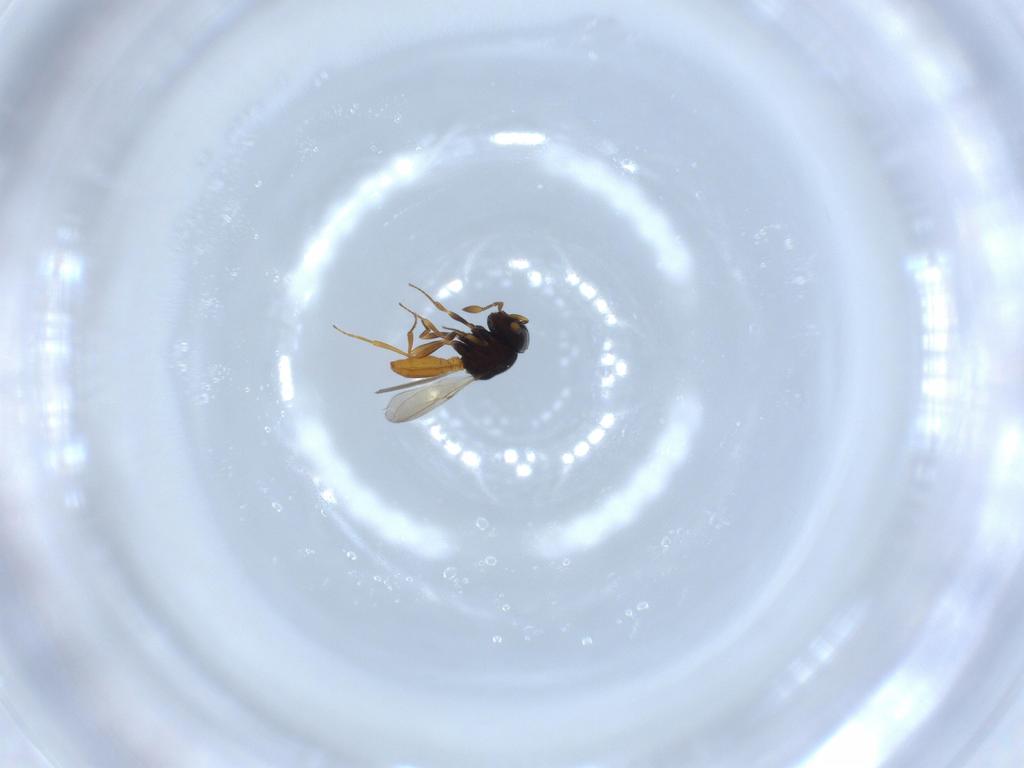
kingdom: Animalia
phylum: Arthropoda
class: Insecta
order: Hymenoptera
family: Scelionidae
